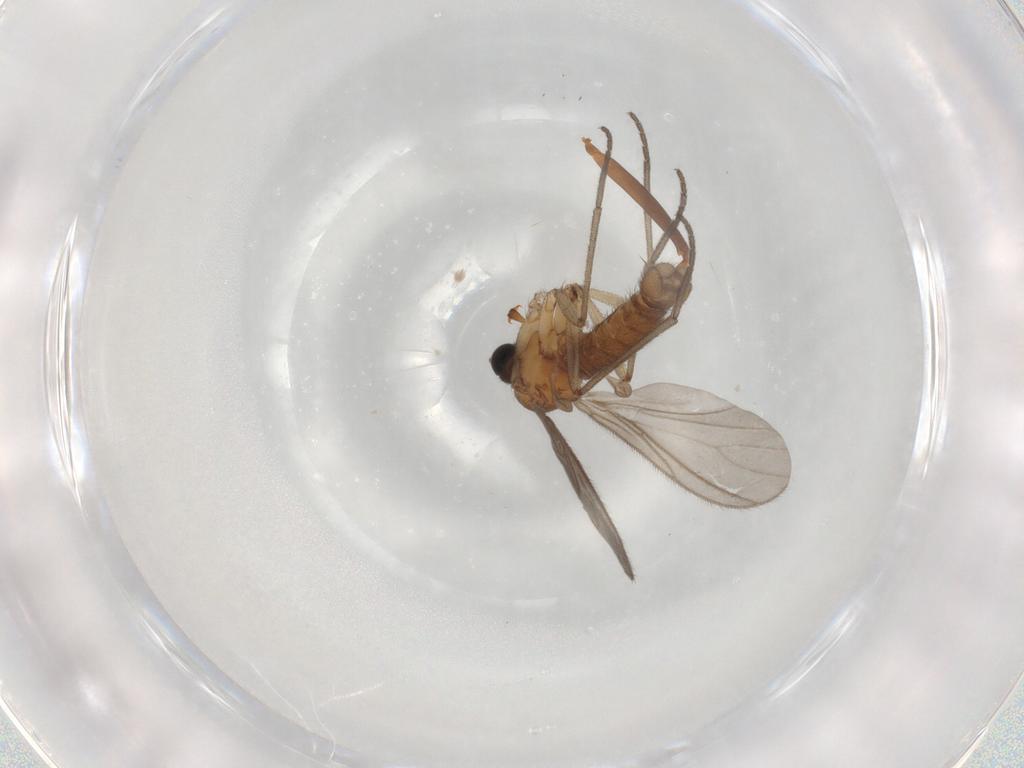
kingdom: Animalia
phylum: Arthropoda
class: Insecta
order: Diptera
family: Sciaridae
